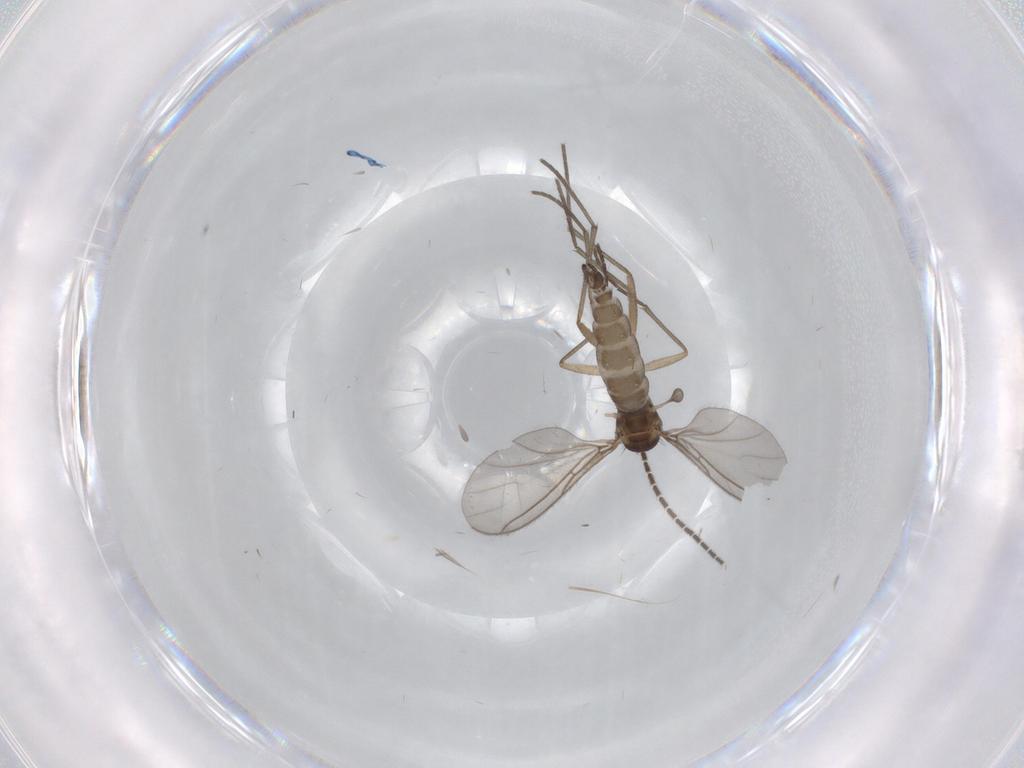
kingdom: Animalia
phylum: Arthropoda
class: Insecta
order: Diptera
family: Sciaridae
